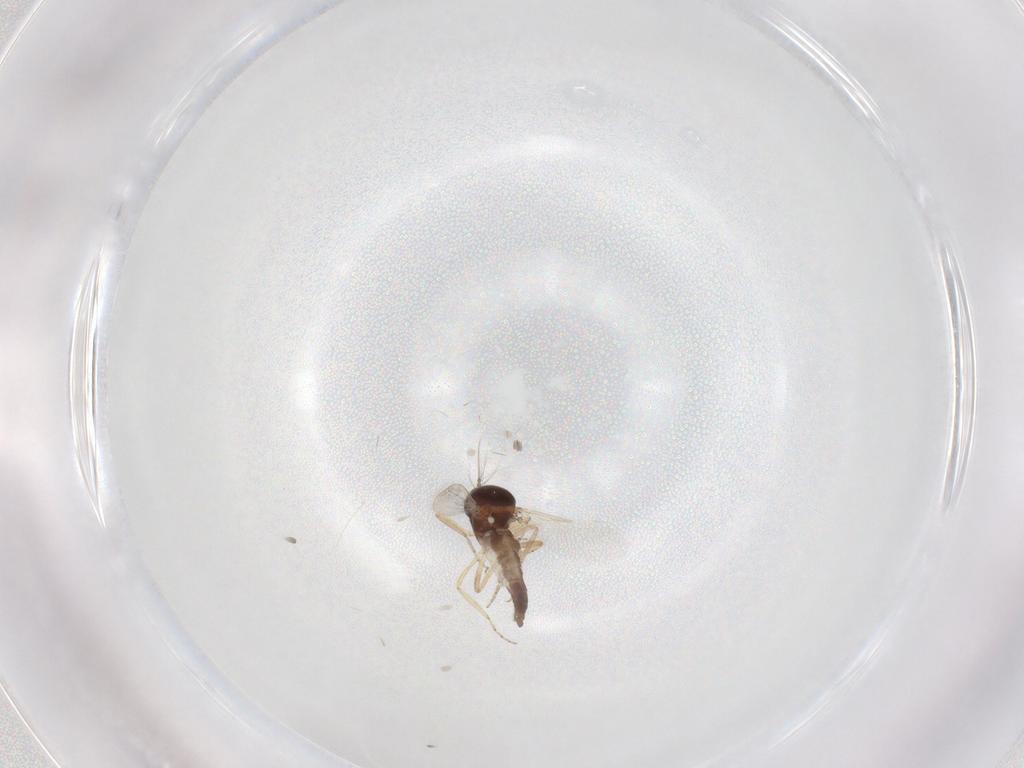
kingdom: Animalia
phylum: Arthropoda
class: Insecta
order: Diptera
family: Ceratopogonidae
